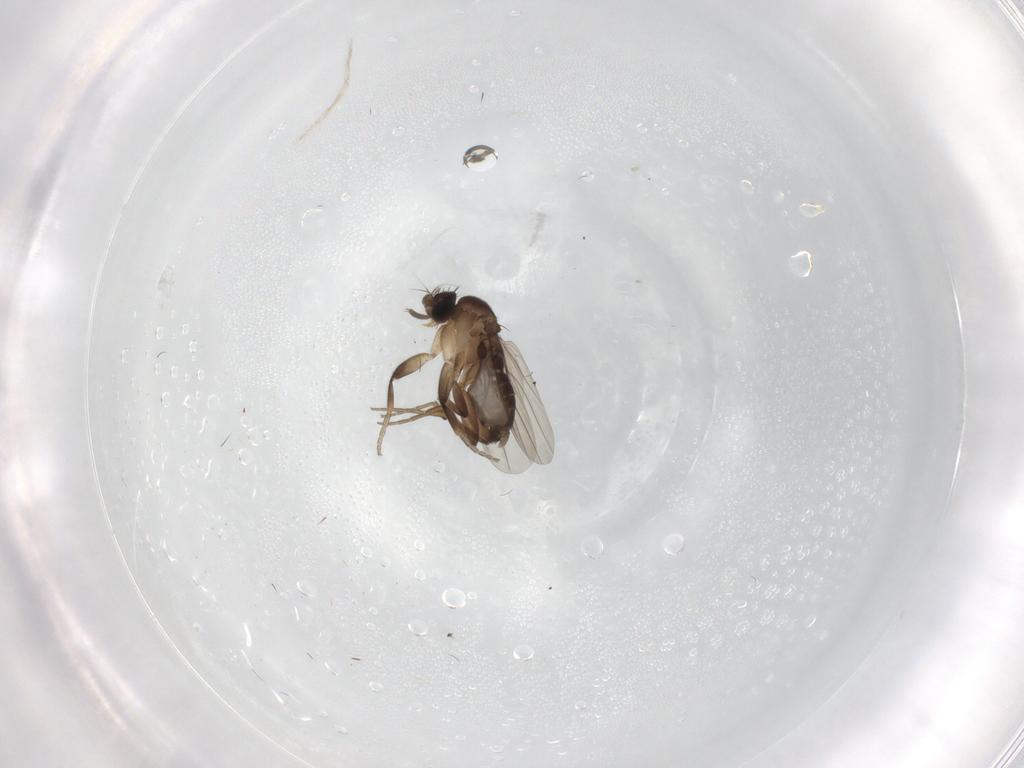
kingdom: Animalia
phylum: Arthropoda
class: Insecta
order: Diptera
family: Phoridae
